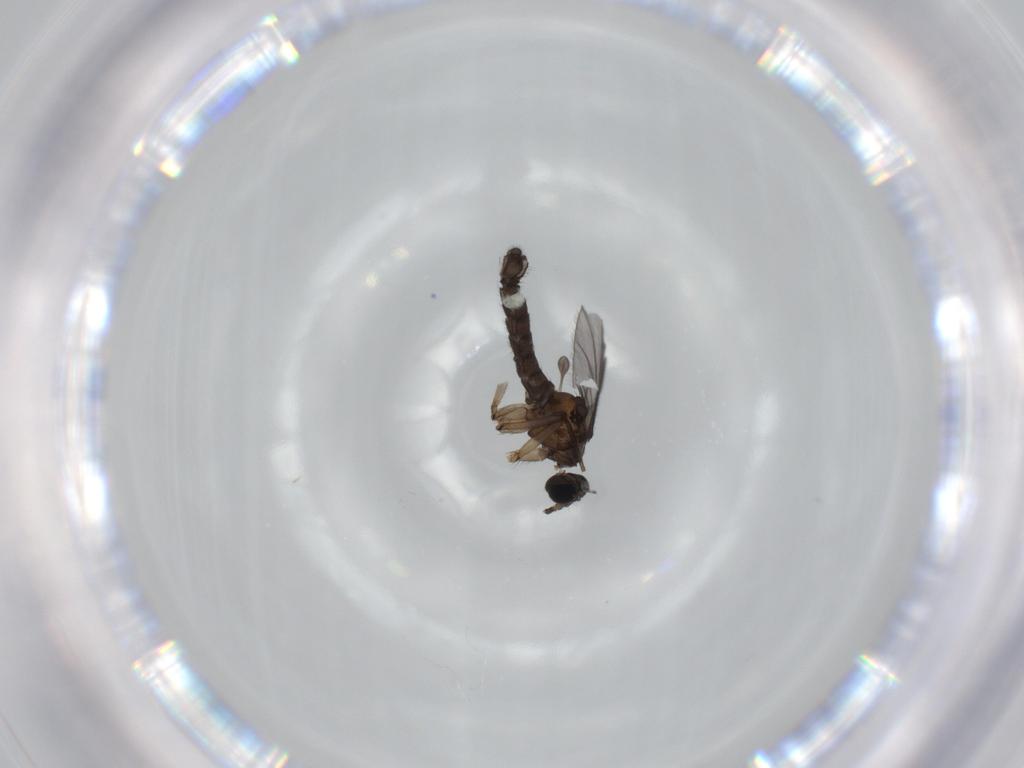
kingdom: Animalia
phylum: Arthropoda
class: Insecta
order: Diptera
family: Sciaridae
